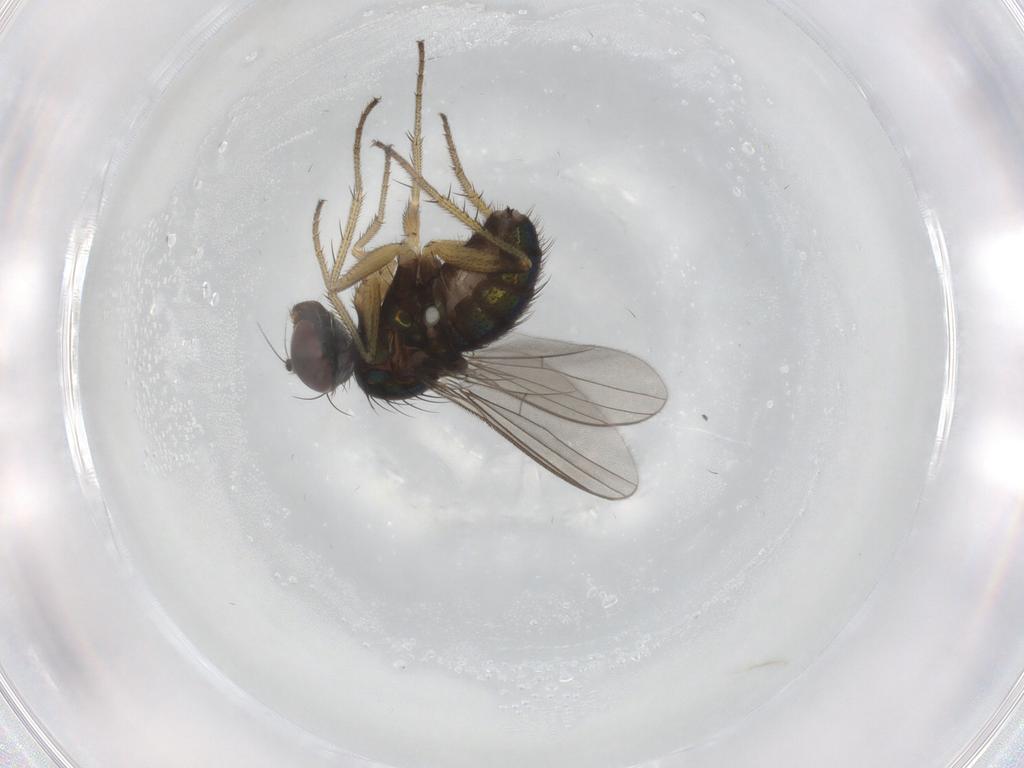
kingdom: Animalia
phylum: Arthropoda
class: Insecta
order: Diptera
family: Dolichopodidae
